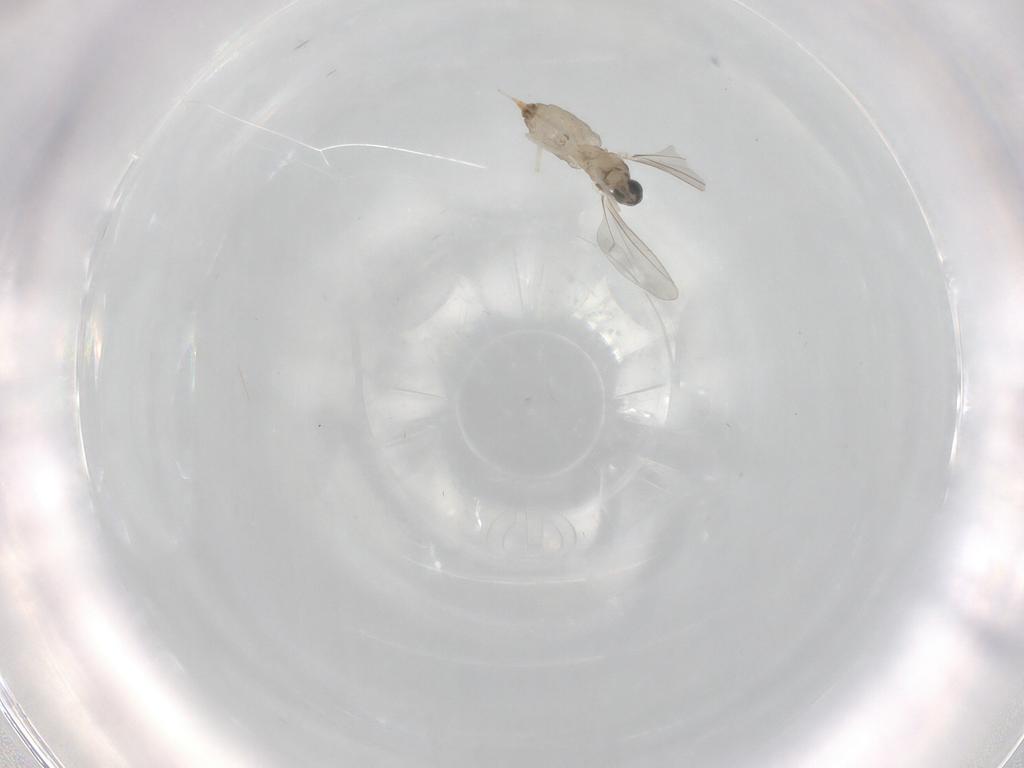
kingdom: Animalia
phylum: Arthropoda
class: Insecta
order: Diptera
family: Cecidomyiidae
